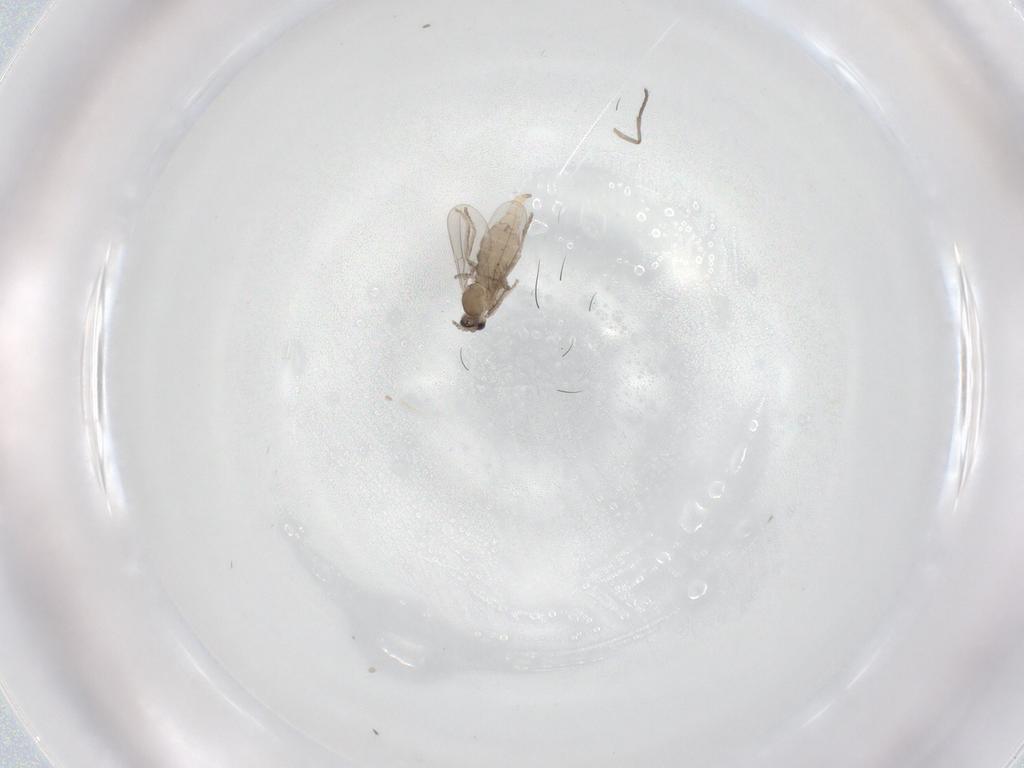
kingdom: Animalia
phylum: Arthropoda
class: Insecta
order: Diptera
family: Cecidomyiidae
